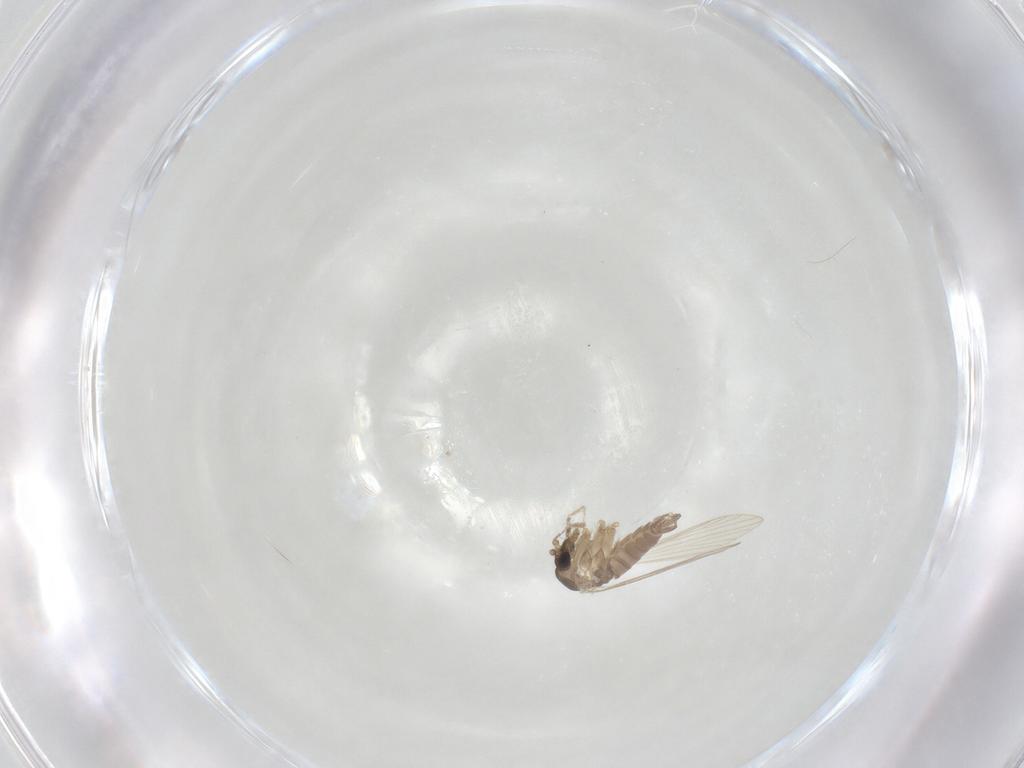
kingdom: Animalia
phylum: Arthropoda
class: Insecta
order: Diptera
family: Psychodidae
